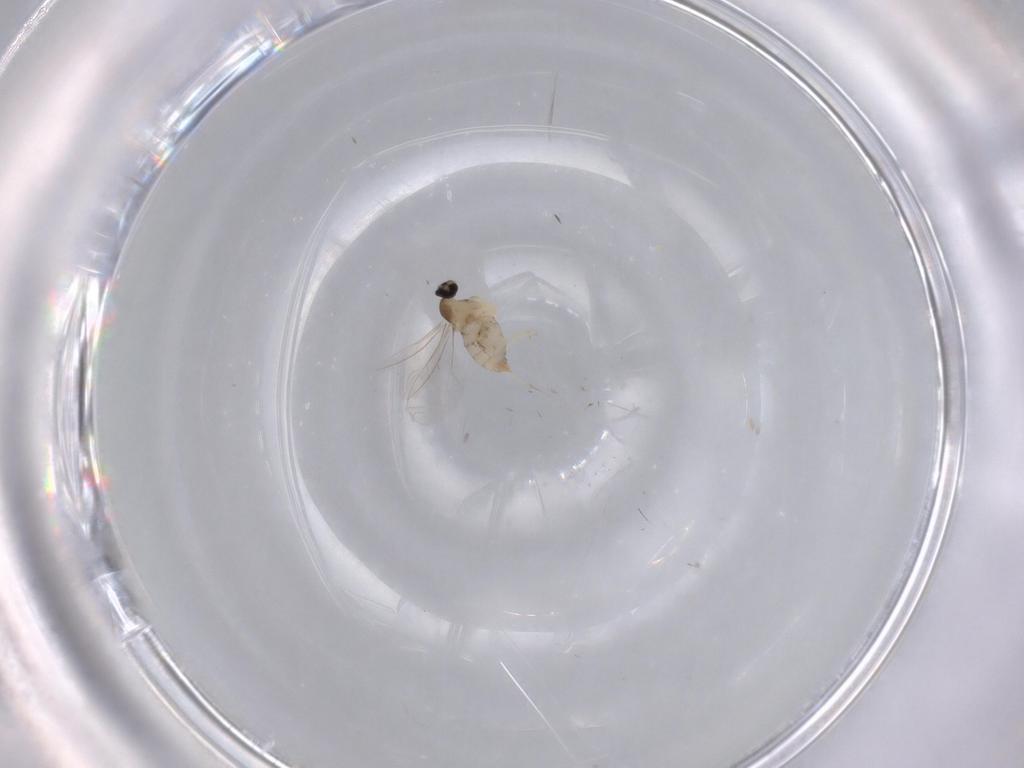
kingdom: Animalia
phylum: Arthropoda
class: Insecta
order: Diptera
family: Cecidomyiidae
